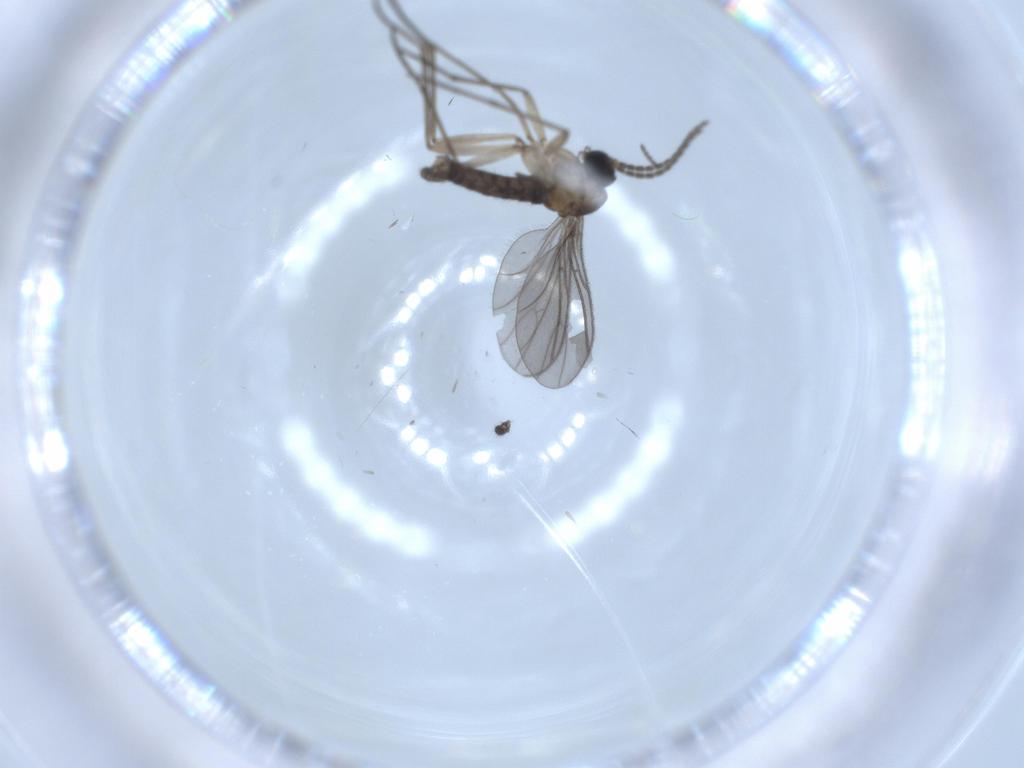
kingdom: Animalia
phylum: Arthropoda
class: Insecta
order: Diptera
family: Sciaridae
